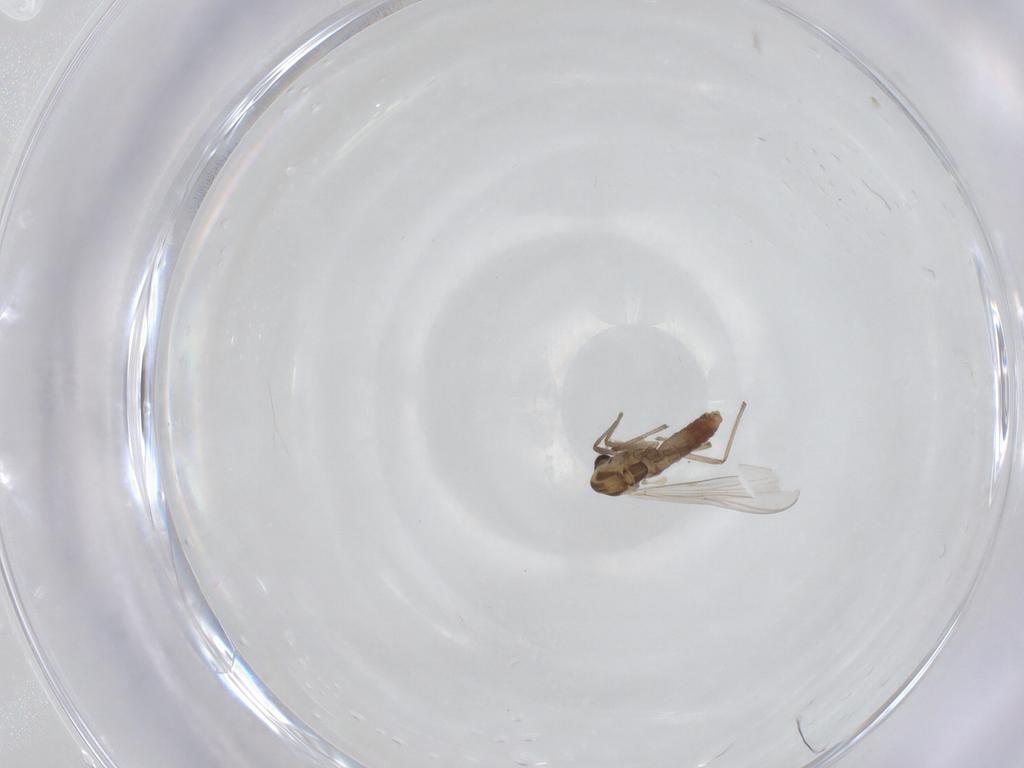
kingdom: Animalia
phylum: Arthropoda
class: Insecta
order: Diptera
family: Chironomidae
